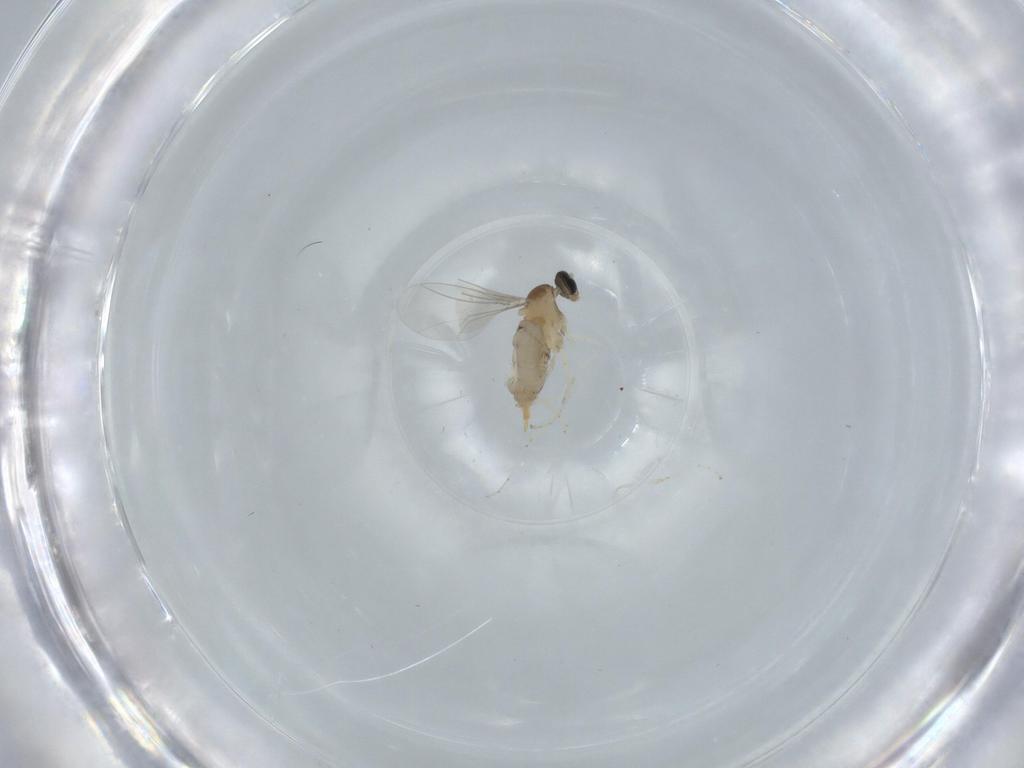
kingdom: Animalia
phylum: Arthropoda
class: Insecta
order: Diptera
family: Cecidomyiidae
